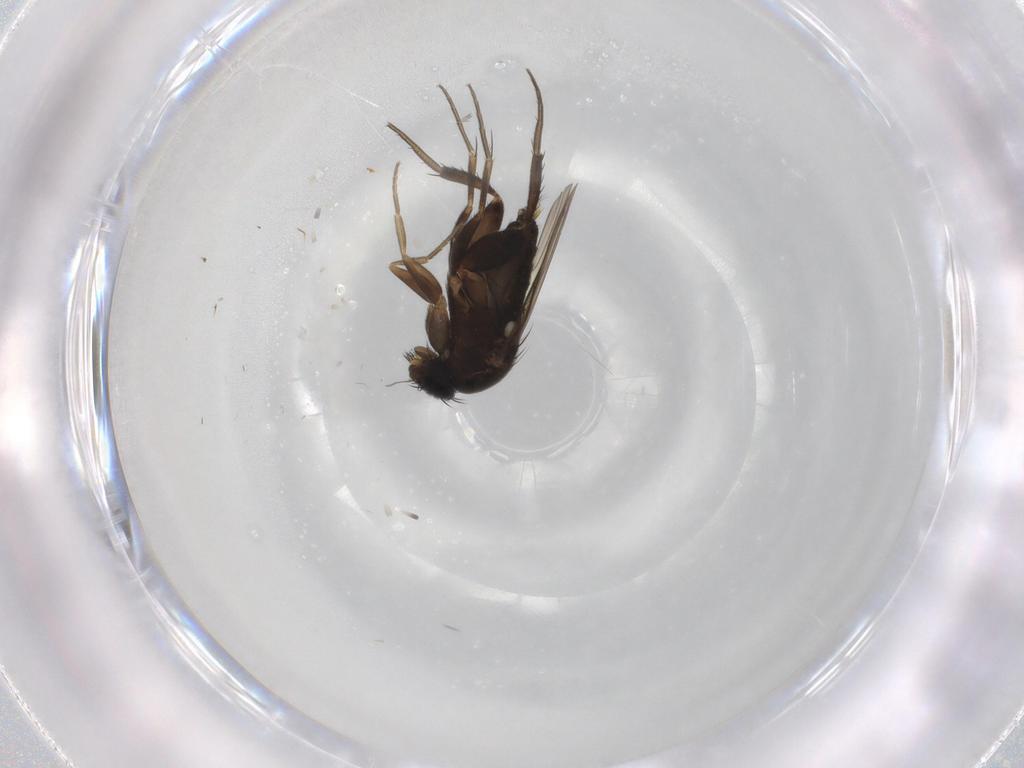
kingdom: Animalia
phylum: Arthropoda
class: Insecta
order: Diptera
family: Phoridae
